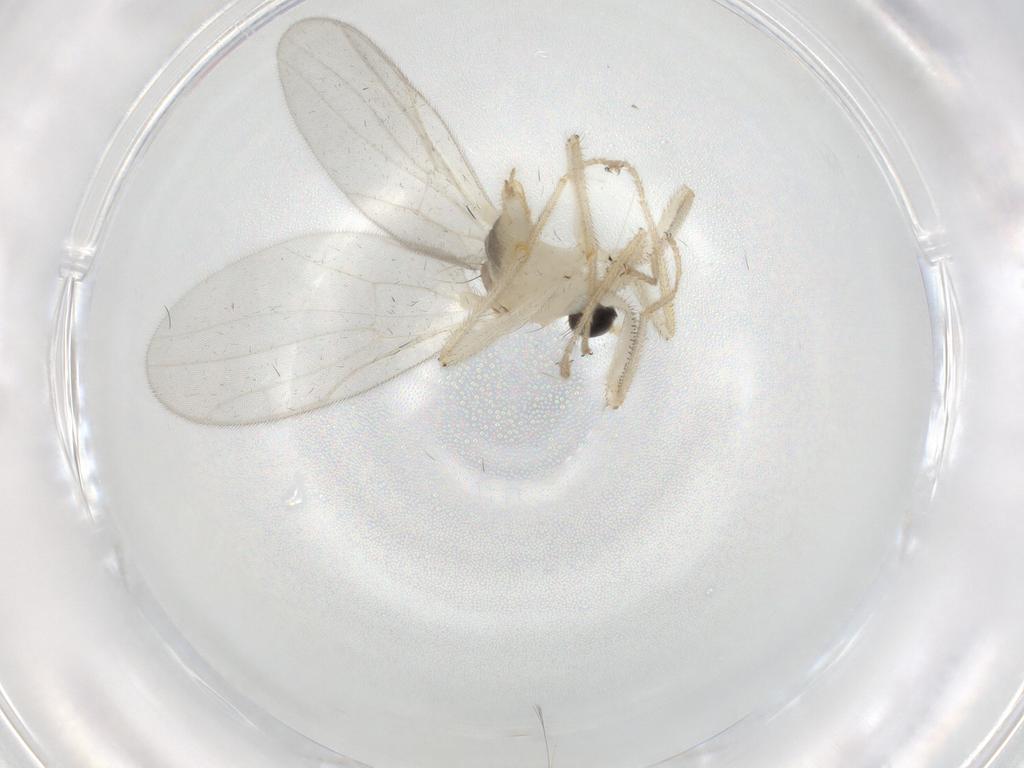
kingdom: Animalia
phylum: Arthropoda
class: Insecta
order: Diptera
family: Hybotidae
